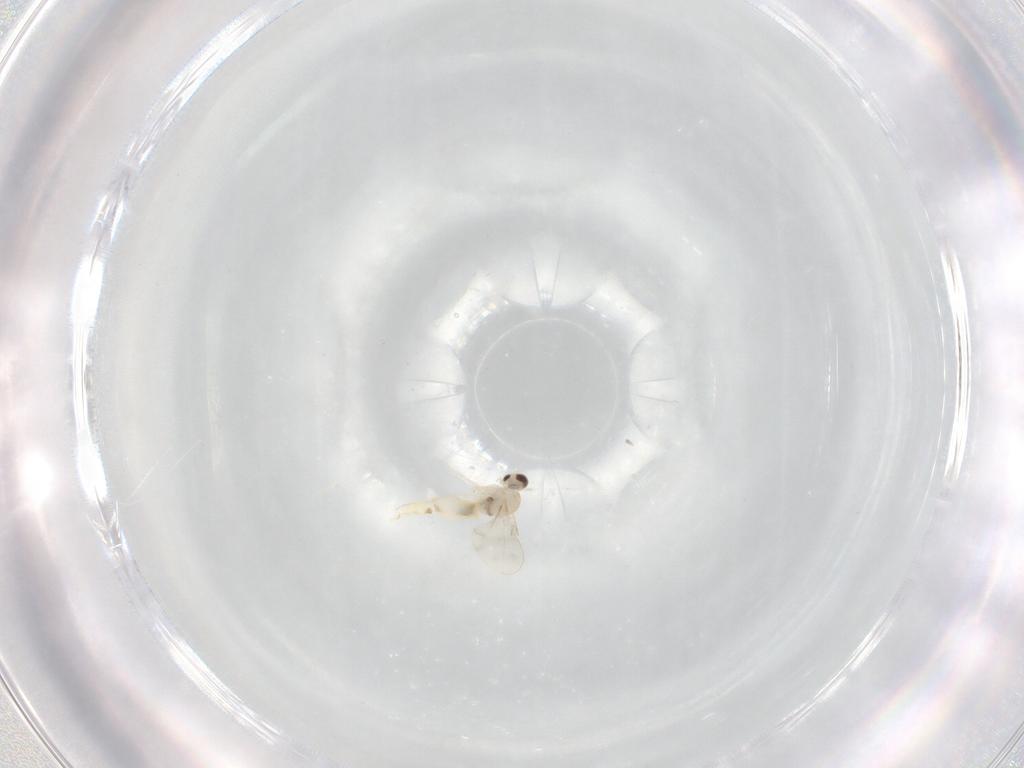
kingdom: Animalia
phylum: Arthropoda
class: Insecta
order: Diptera
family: Cecidomyiidae
